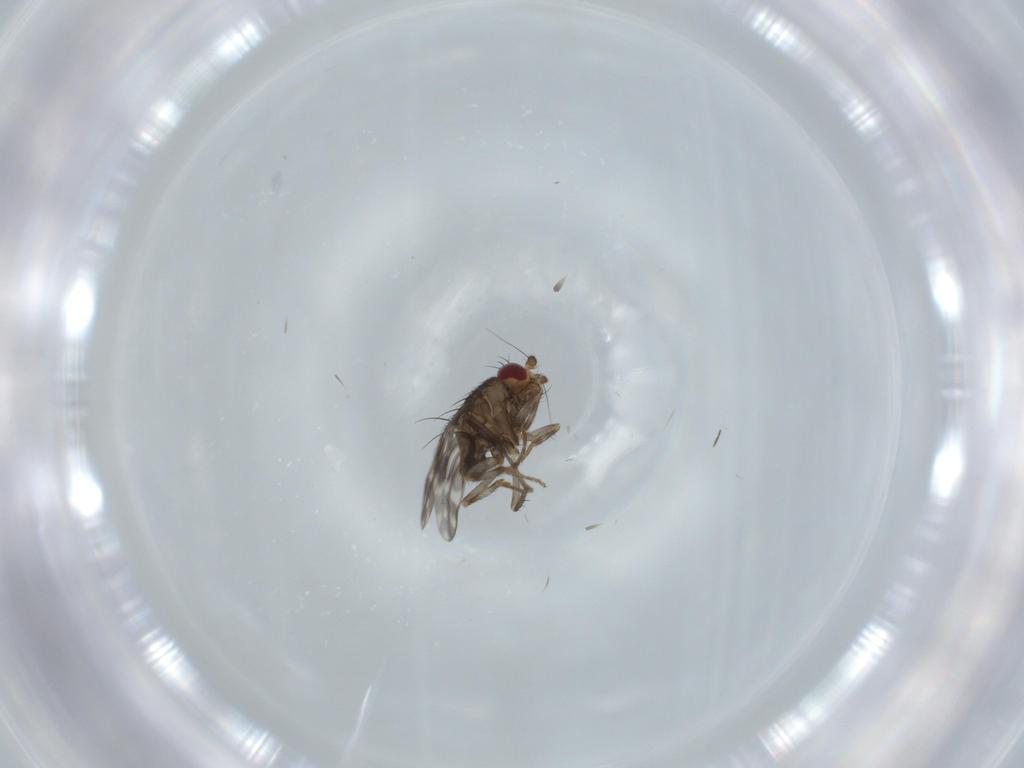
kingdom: Animalia
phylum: Arthropoda
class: Insecta
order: Diptera
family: Sphaeroceridae
